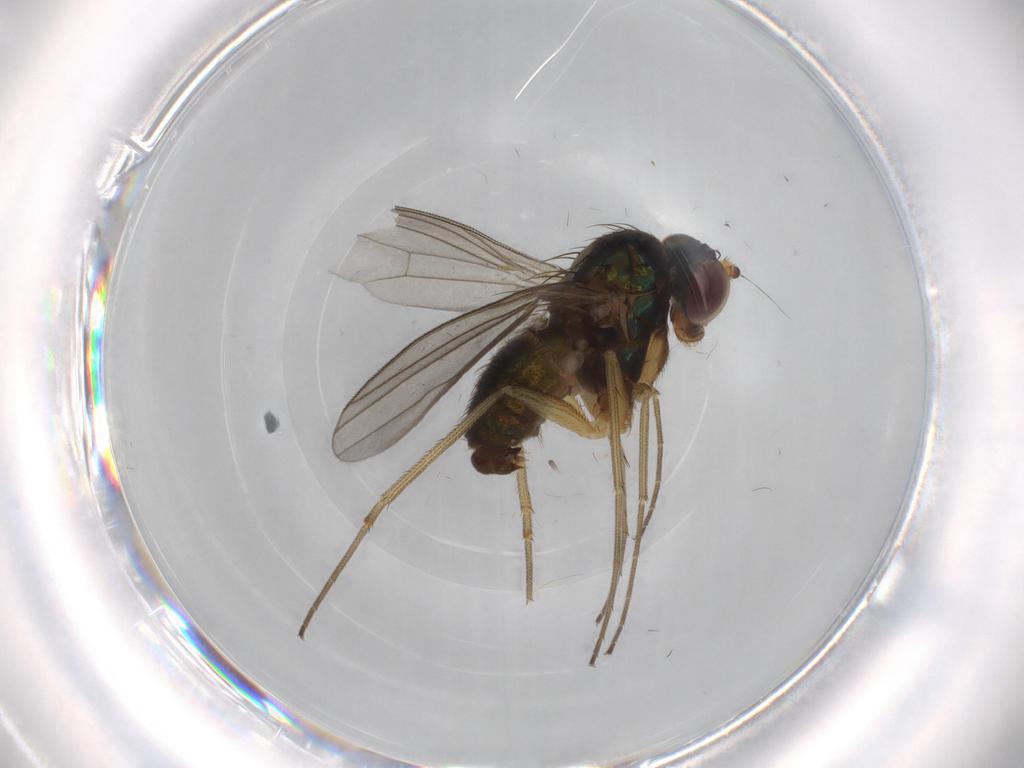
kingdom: Animalia
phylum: Arthropoda
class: Insecta
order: Diptera
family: Dolichopodidae
